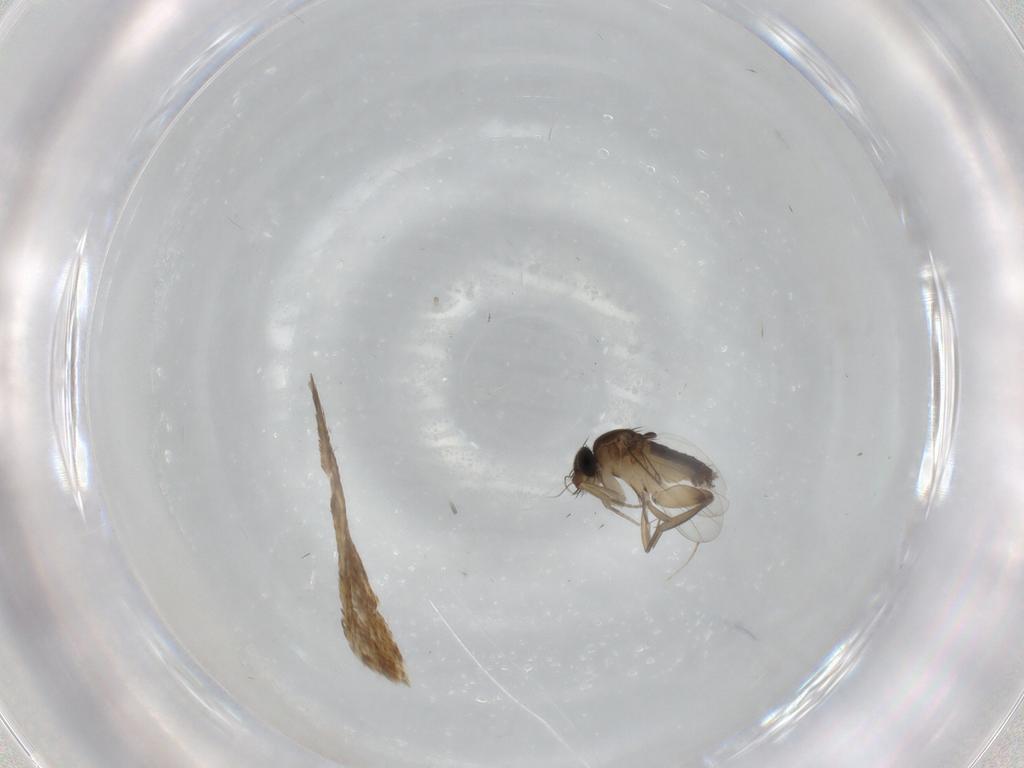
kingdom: Animalia
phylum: Arthropoda
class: Insecta
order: Diptera
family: Phoridae
